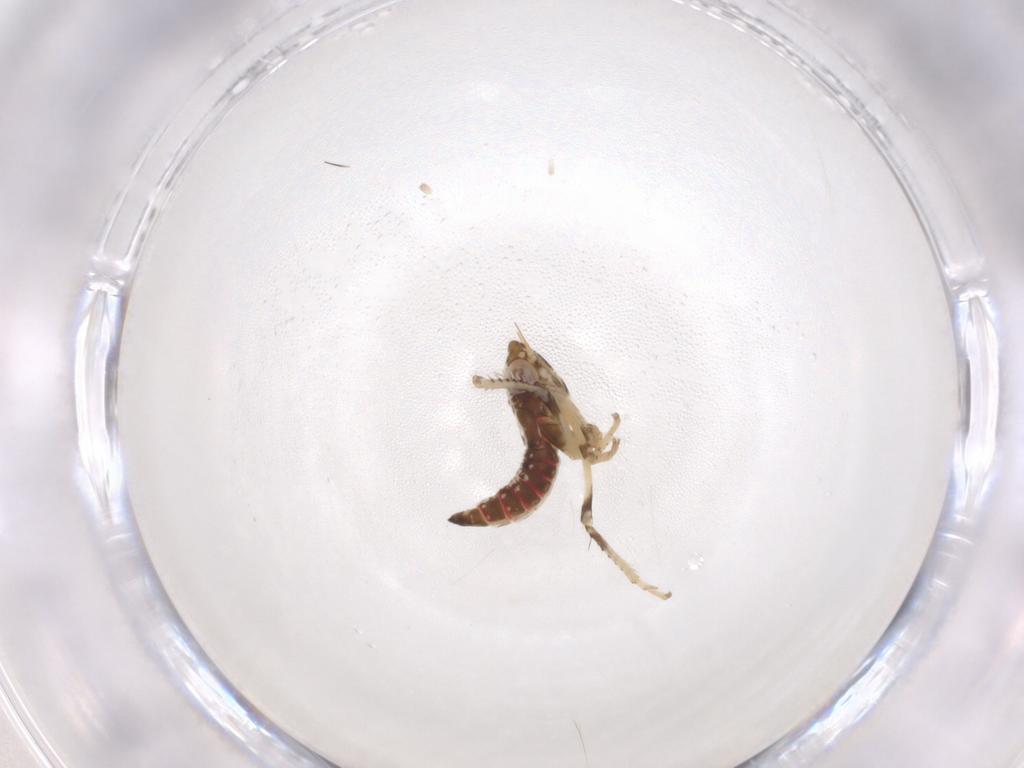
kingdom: Animalia
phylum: Arthropoda
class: Insecta
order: Hemiptera
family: Cicadellidae
